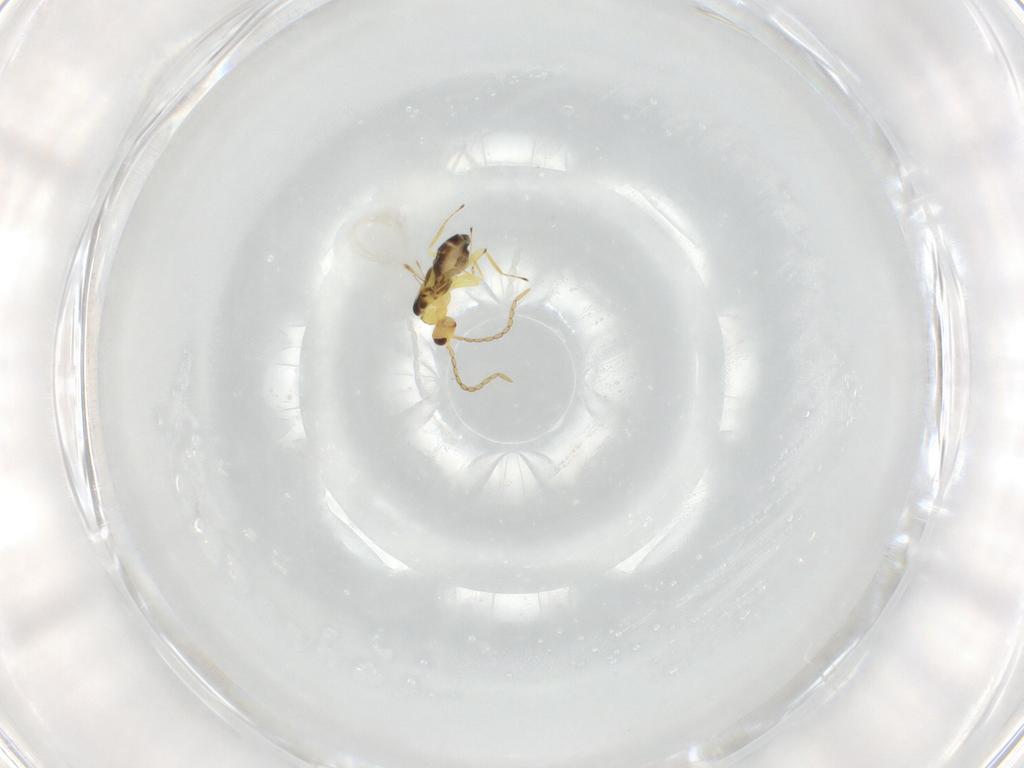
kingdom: Animalia
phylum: Arthropoda
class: Insecta
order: Hymenoptera
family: Mymaridae
